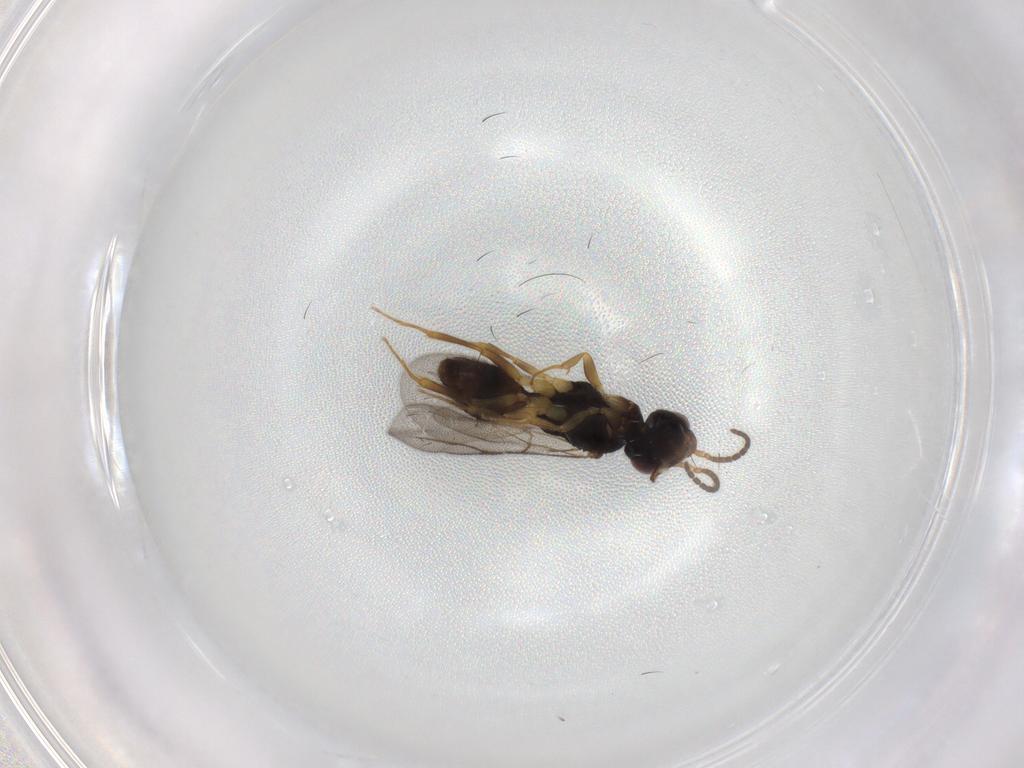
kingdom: Animalia
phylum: Arthropoda
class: Insecta
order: Hymenoptera
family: Bethylidae
